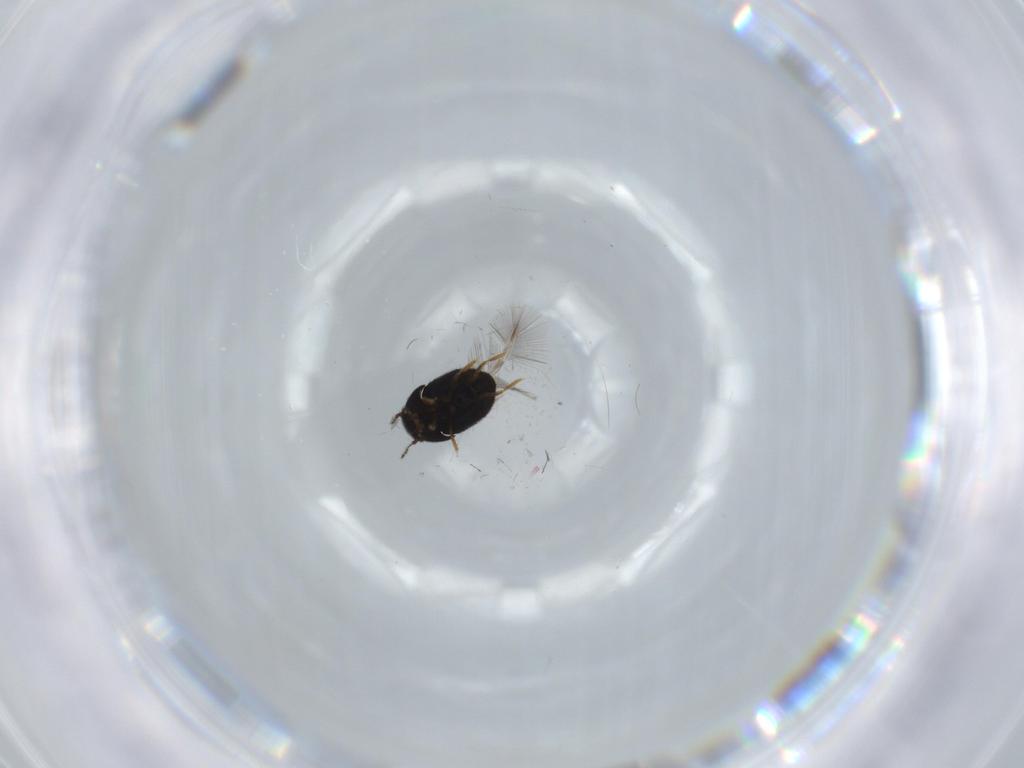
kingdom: Animalia
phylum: Arthropoda
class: Insecta
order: Coleoptera
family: Ptiliidae
